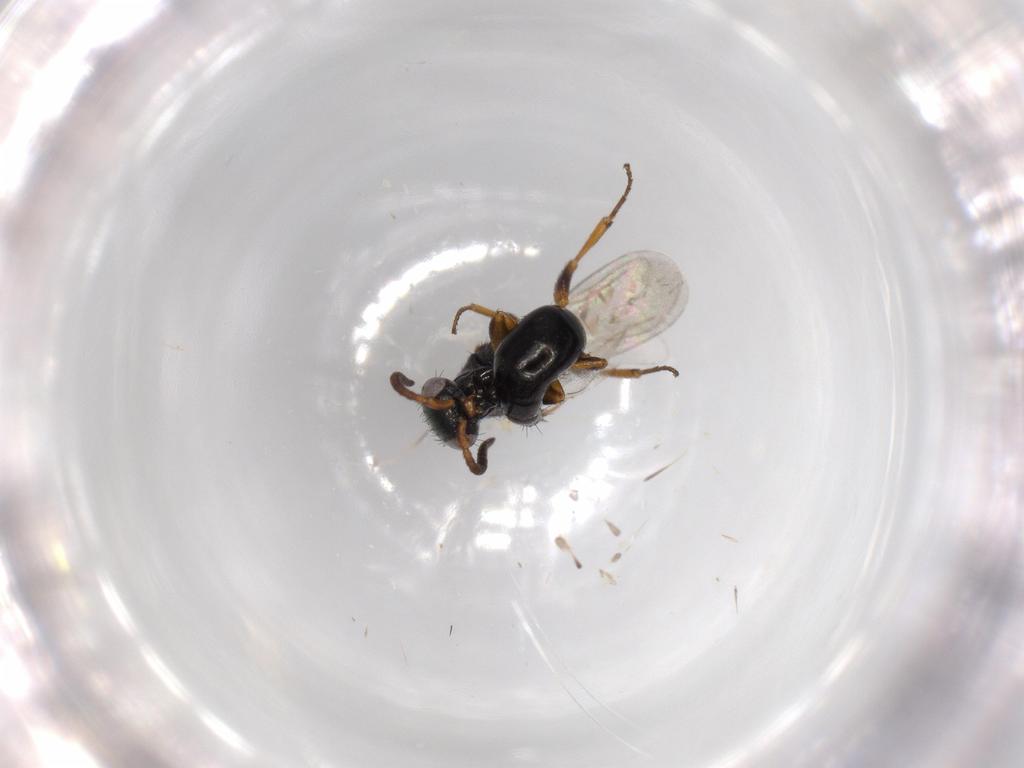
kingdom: Animalia
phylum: Arthropoda
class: Insecta
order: Hymenoptera
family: Bethylidae
